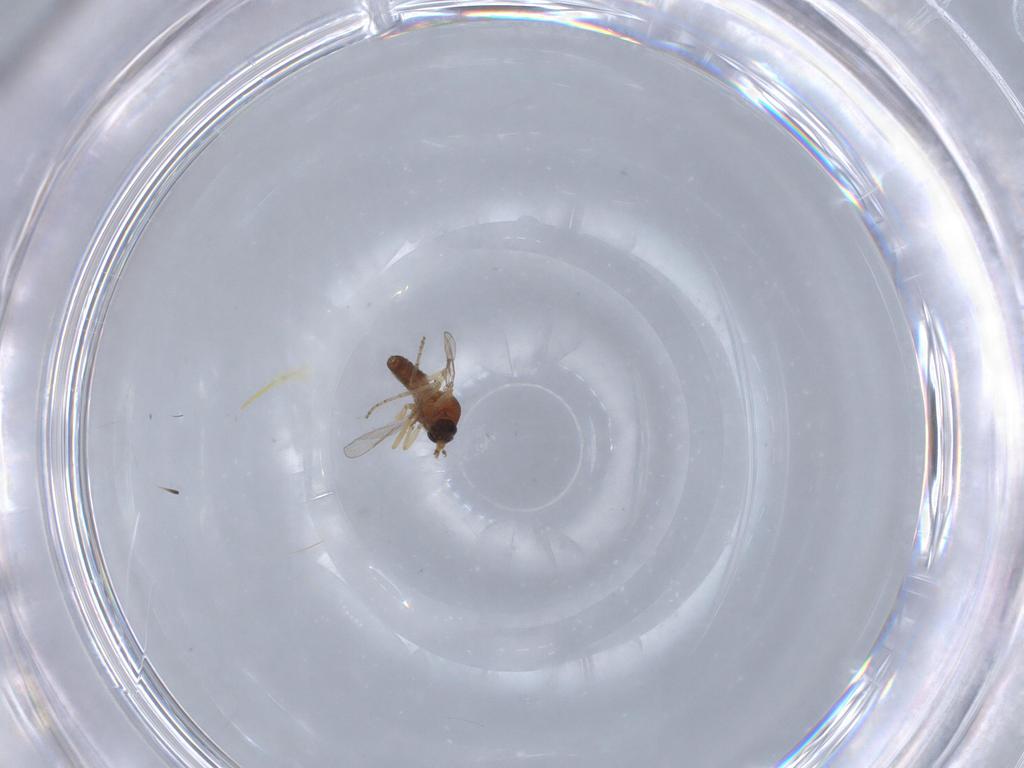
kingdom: Animalia
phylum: Arthropoda
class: Insecta
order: Diptera
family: Ceratopogonidae
